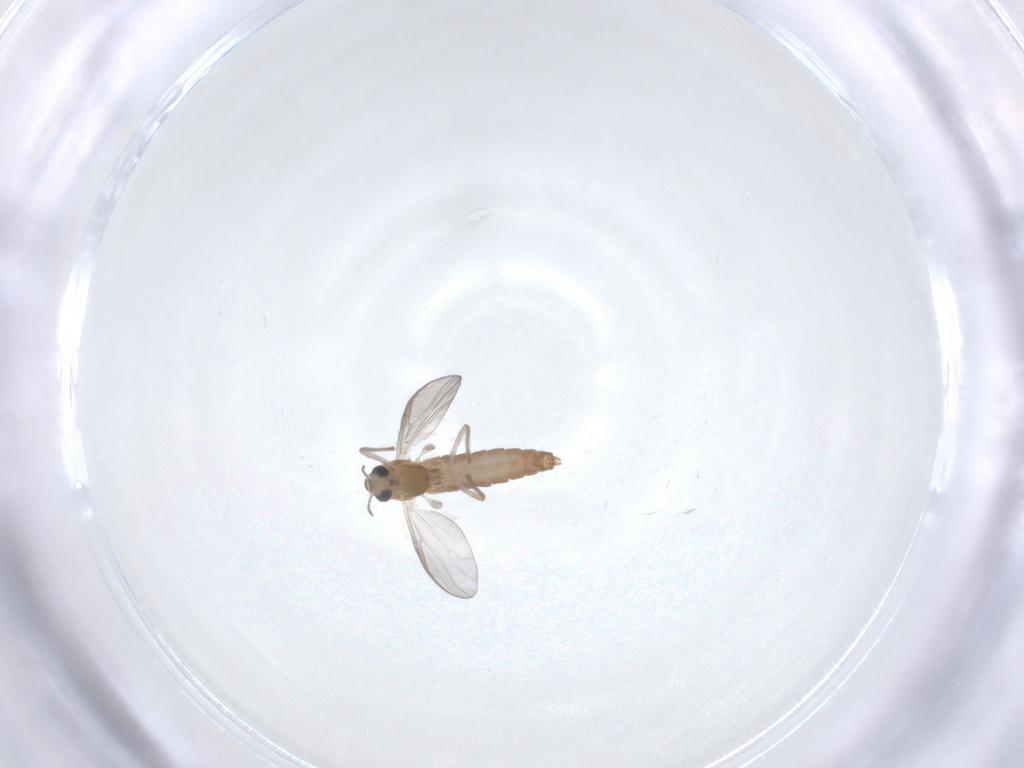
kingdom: Animalia
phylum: Arthropoda
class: Insecta
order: Diptera
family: Chironomidae
